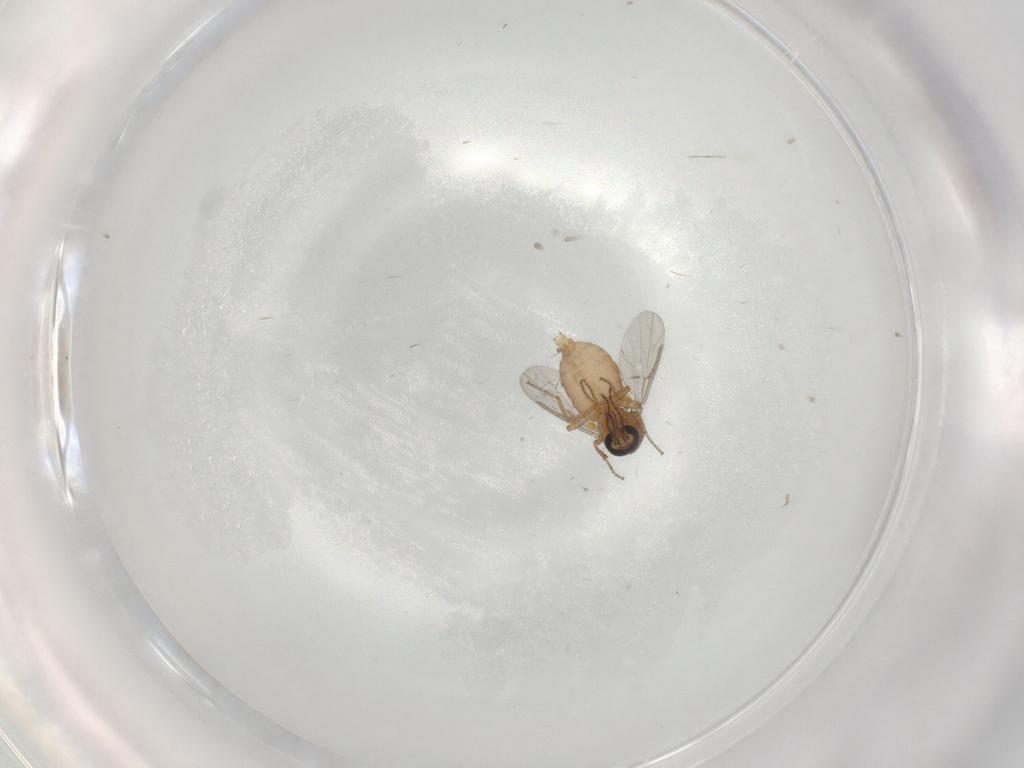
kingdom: Animalia
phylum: Arthropoda
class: Insecta
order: Diptera
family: Ceratopogonidae
